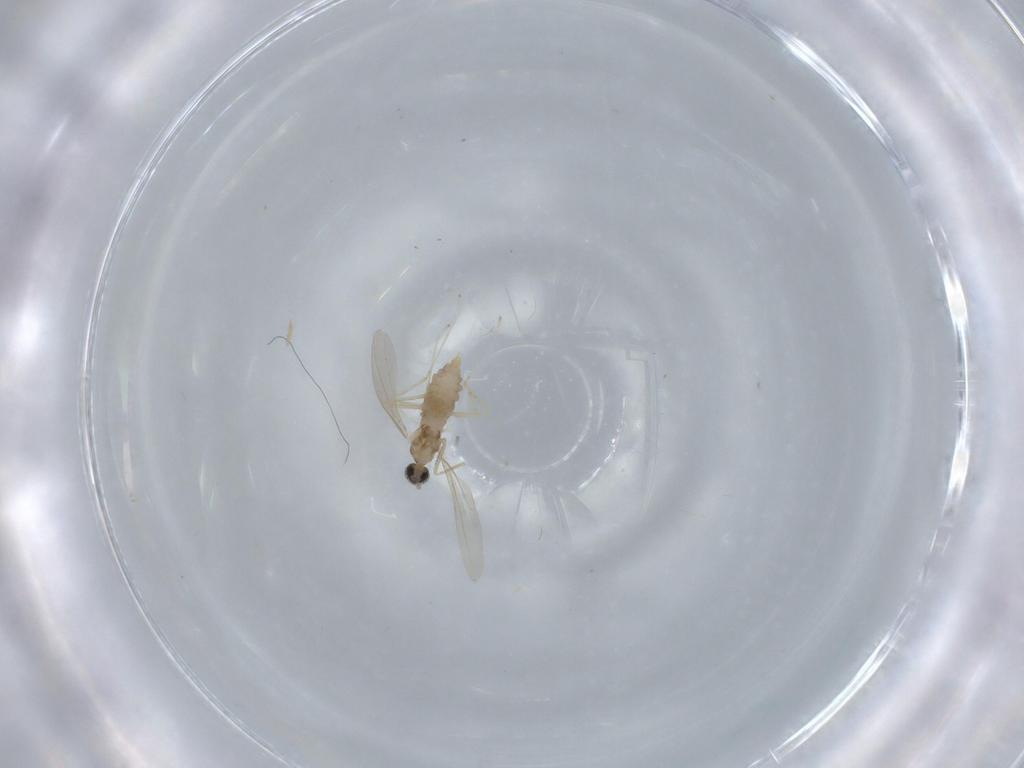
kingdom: Animalia
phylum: Arthropoda
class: Insecta
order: Diptera
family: Cecidomyiidae
